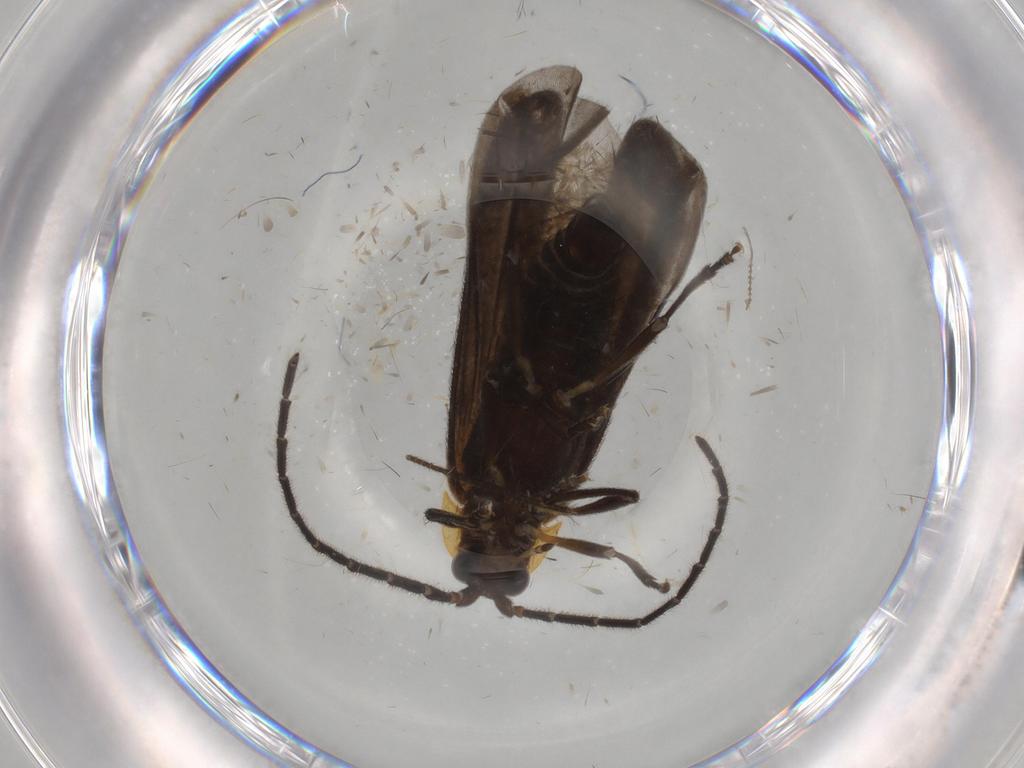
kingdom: Animalia
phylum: Arthropoda
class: Insecta
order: Coleoptera
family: Lycidae
